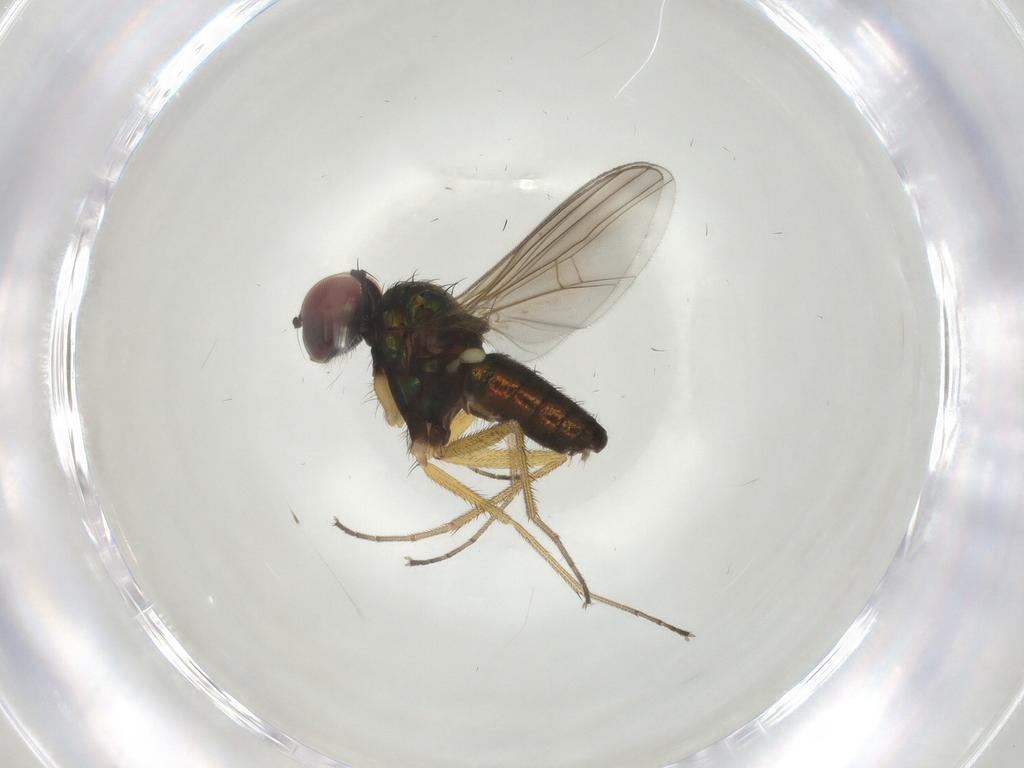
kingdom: Animalia
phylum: Arthropoda
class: Insecta
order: Diptera
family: Dolichopodidae
